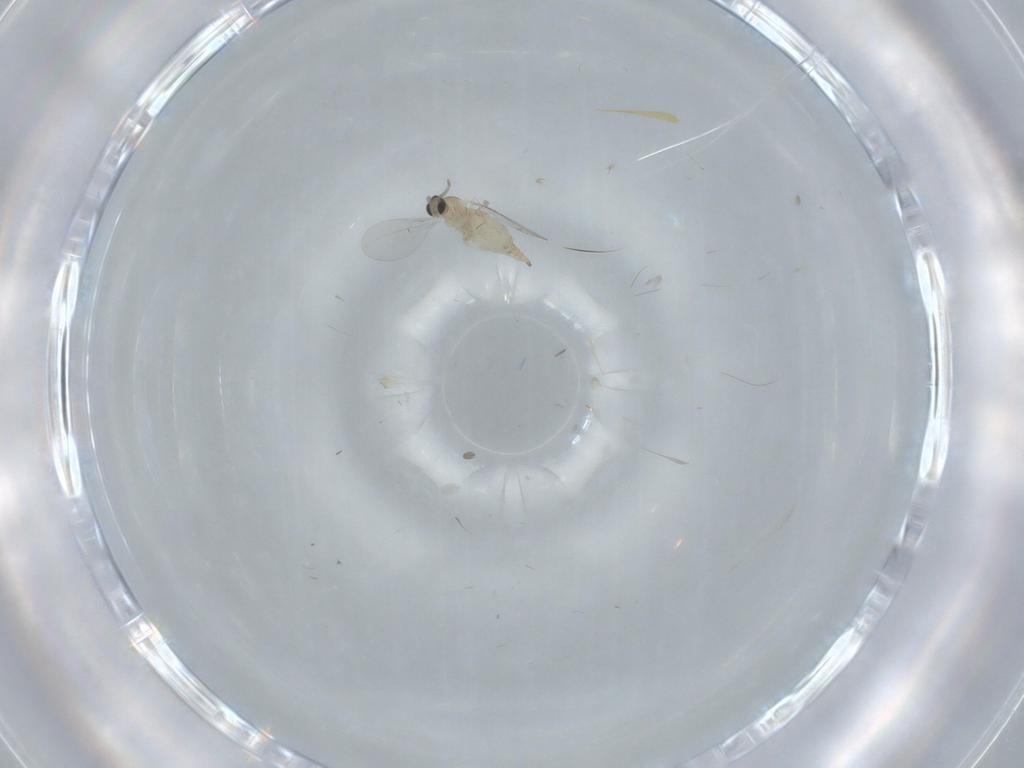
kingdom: Animalia
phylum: Arthropoda
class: Insecta
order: Diptera
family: Cecidomyiidae
